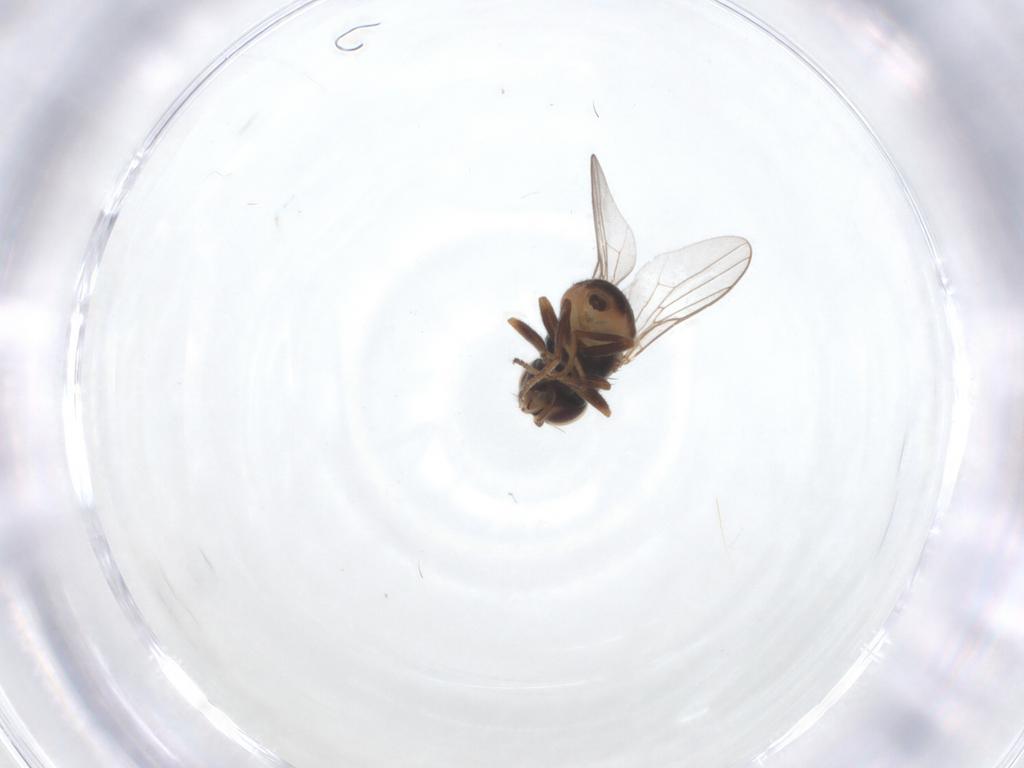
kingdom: Animalia
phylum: Arthropoda
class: Insecta
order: Diptera
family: Chloropidae
